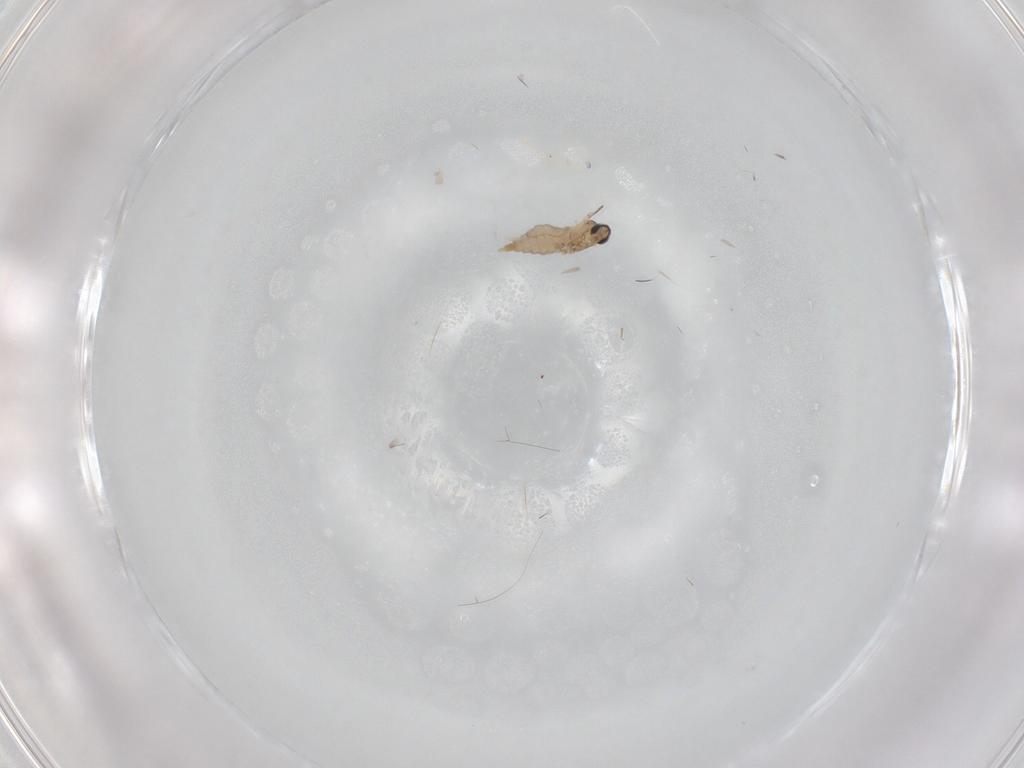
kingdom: Animalia
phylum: Arthropoda
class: Insecta
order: Diptera
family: Cecidomyiidae
